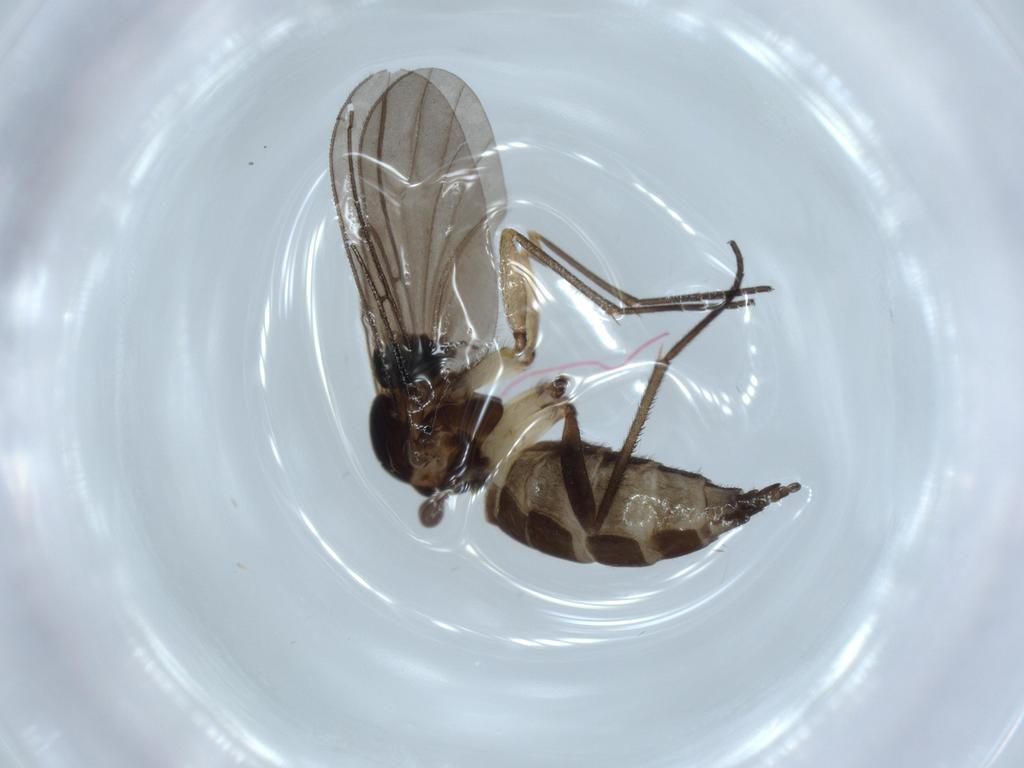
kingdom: Animalia
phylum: Arthropoda
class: Insecta
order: Diptera
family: Sciaridae
